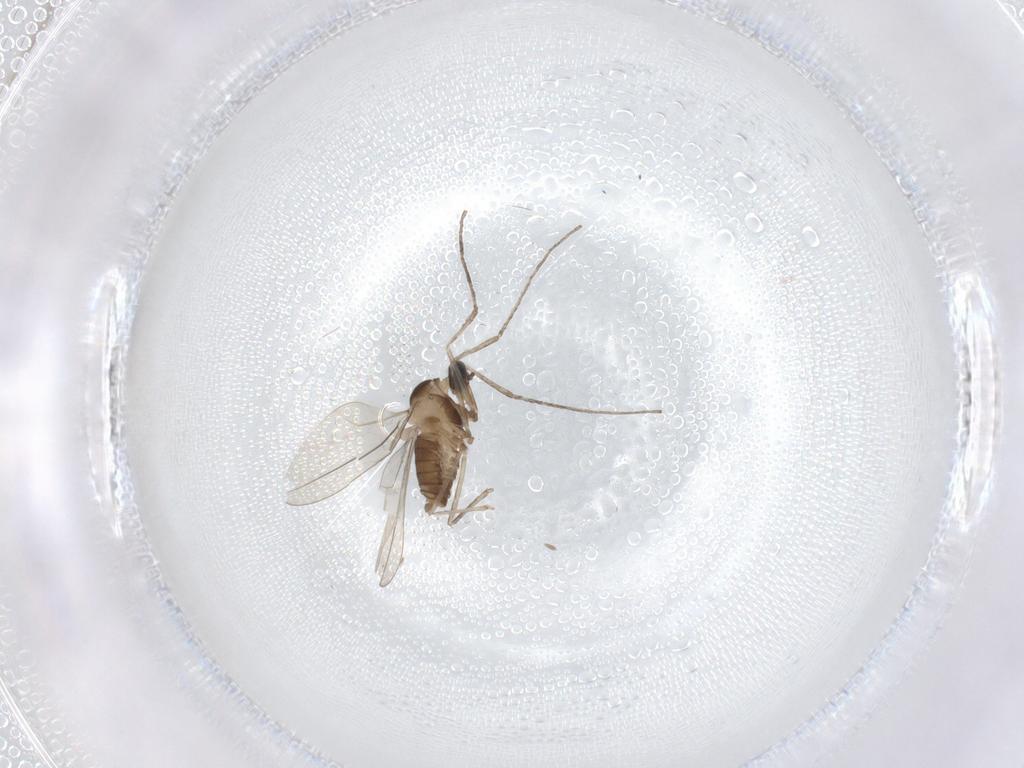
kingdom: Animalia
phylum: Arthropoda
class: Insecta
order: Diptera
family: Cecidomyiidae
